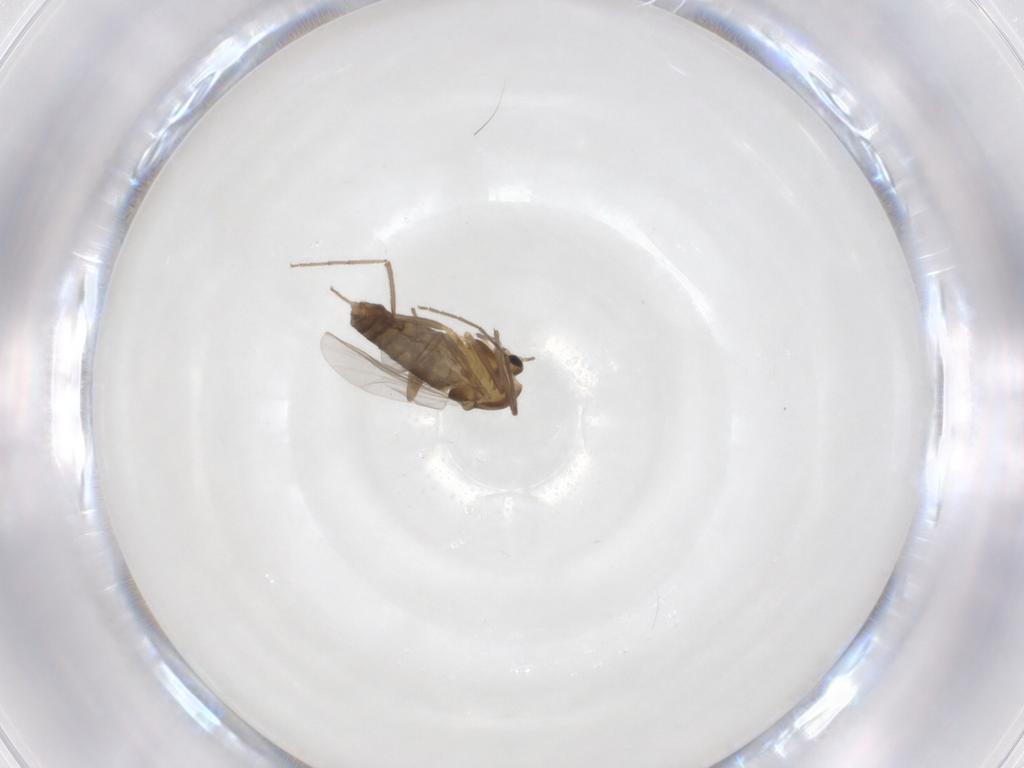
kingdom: Animalia
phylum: Arthropoda
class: Insecta
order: Diptera
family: Chironomidae
